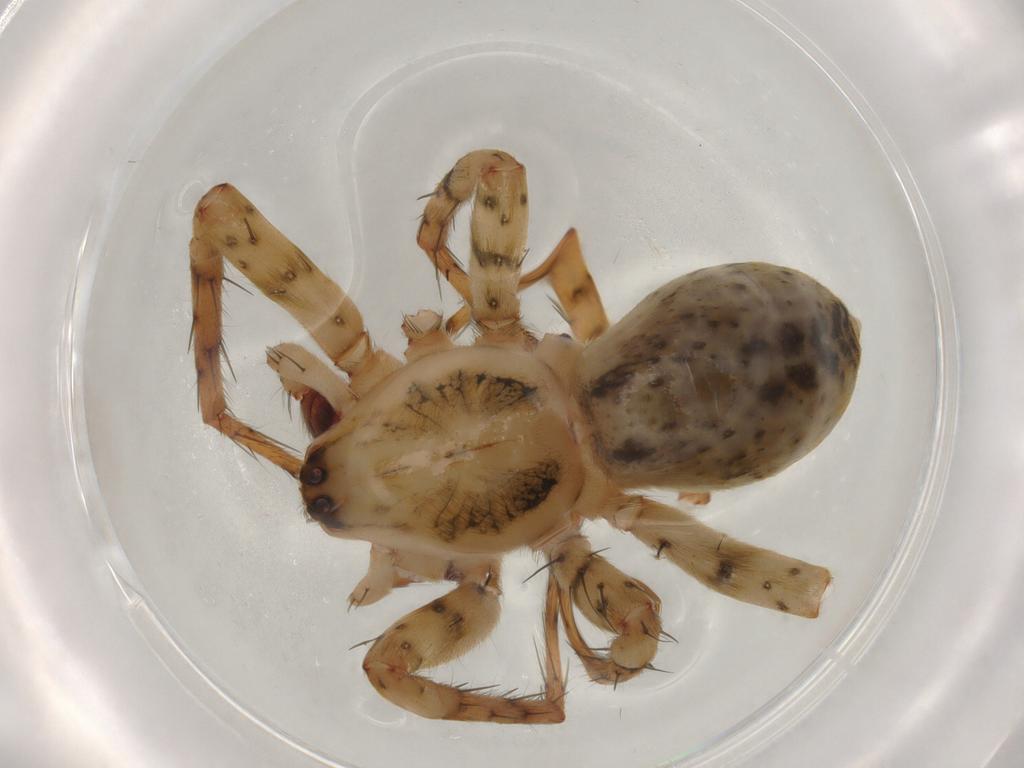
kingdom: Animalia
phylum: Arthropoda
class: Arachnida
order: Araneae
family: Anyphaenidae
